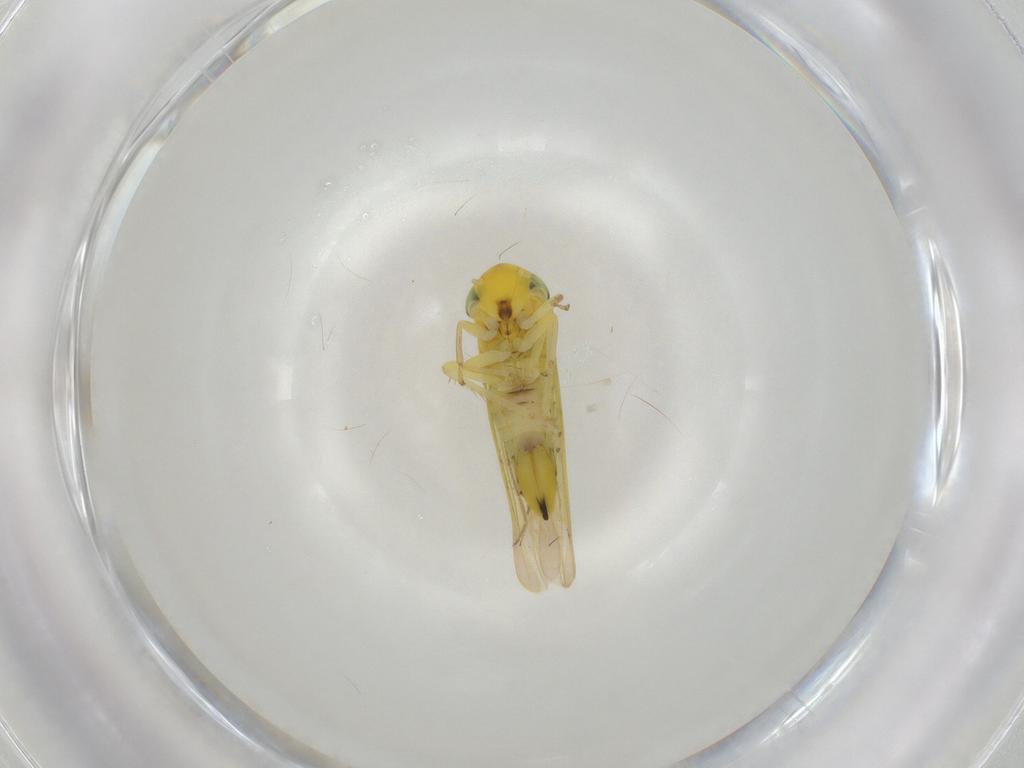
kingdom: Animalia
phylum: Arthropoda
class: Insecta
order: Hemiptera
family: Cicadellidae
